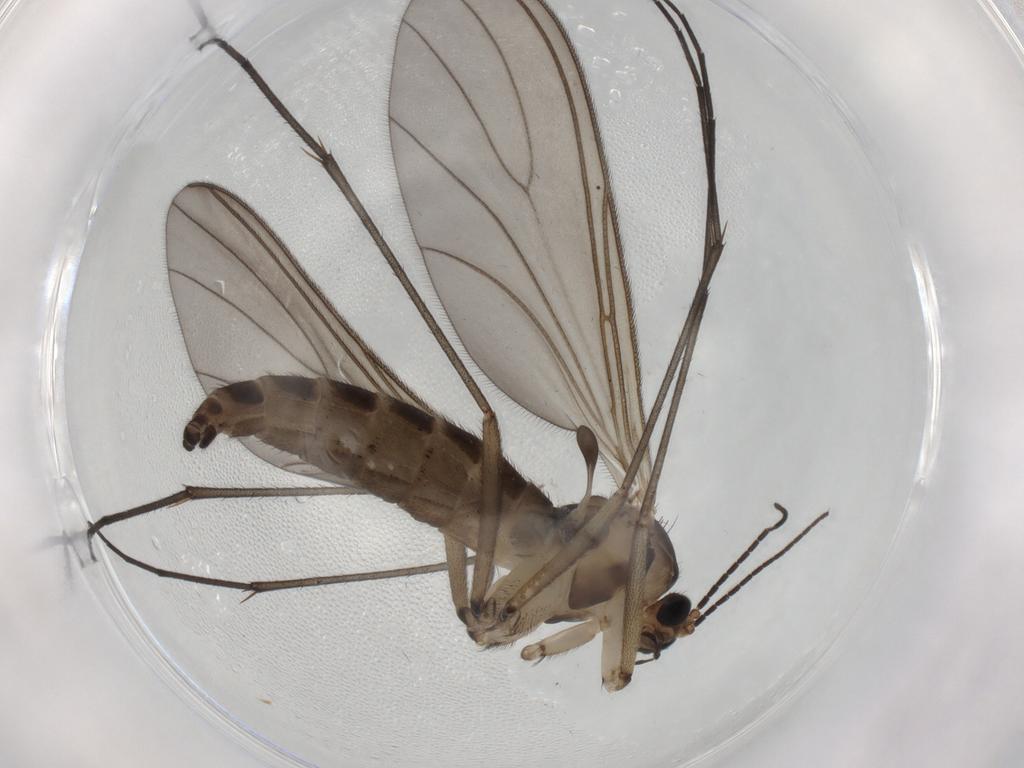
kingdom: Animalia
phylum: Arthropoda
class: Insecta
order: Diptera
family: Sciaridae
